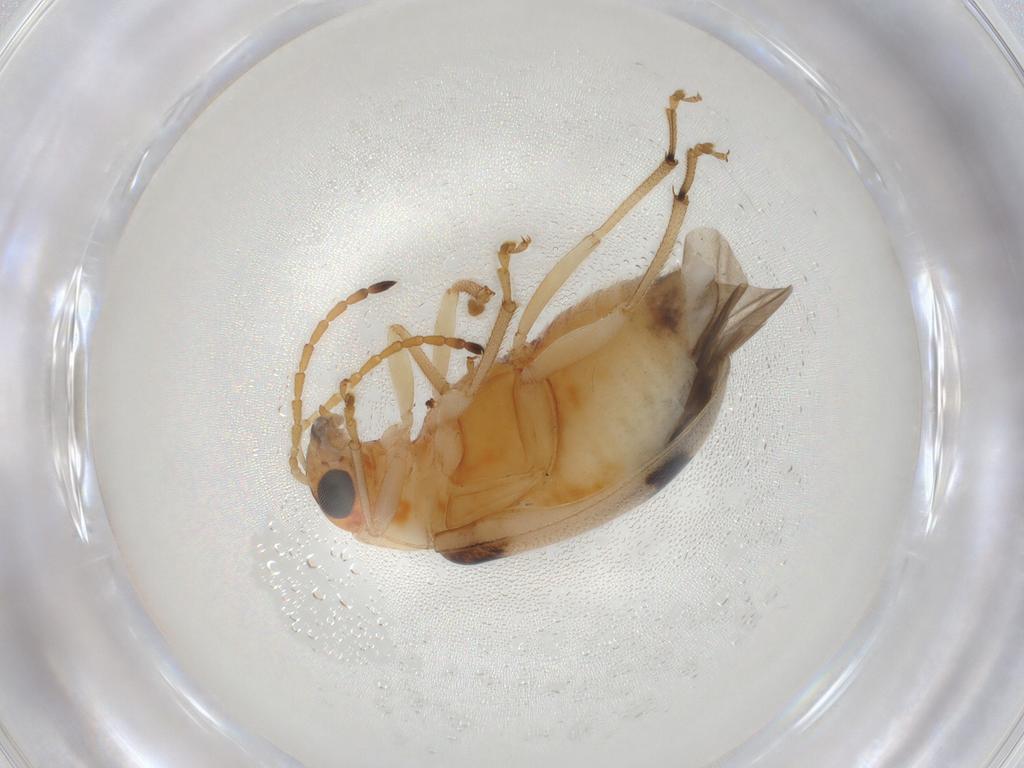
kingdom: Animalia
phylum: Arthropoda
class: Insecta
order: Coleoptera
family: Chrysomelidae
